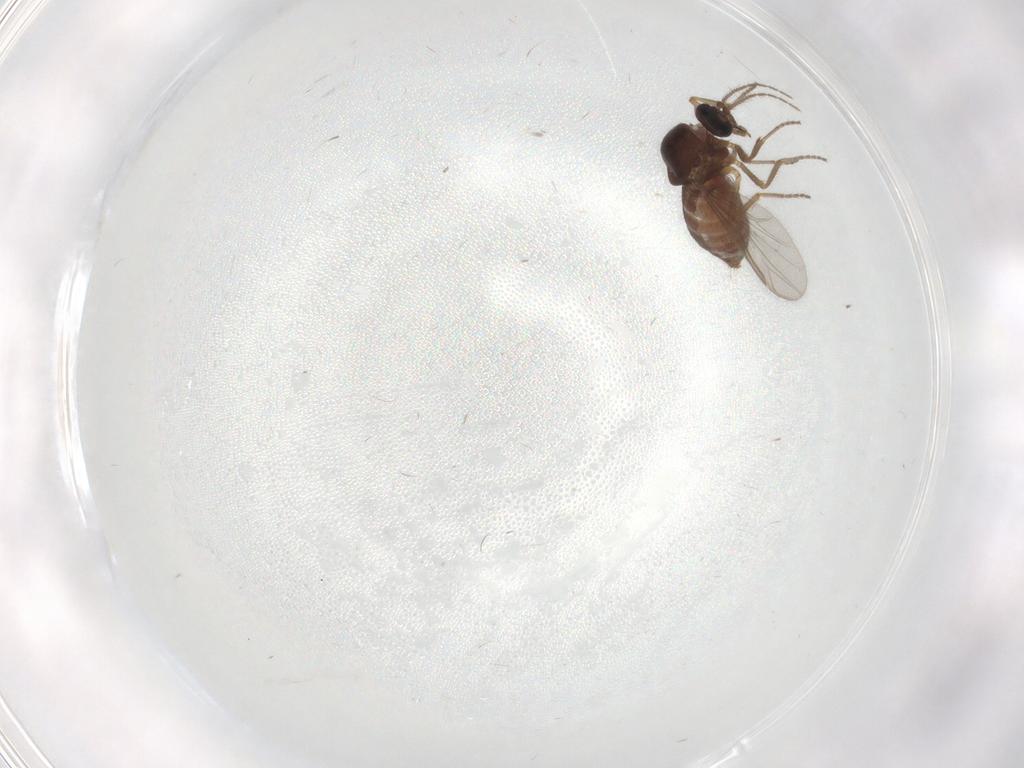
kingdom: Animalia
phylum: Arthropoda
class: Insecta
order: Diptera
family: Ceratopogonidae
